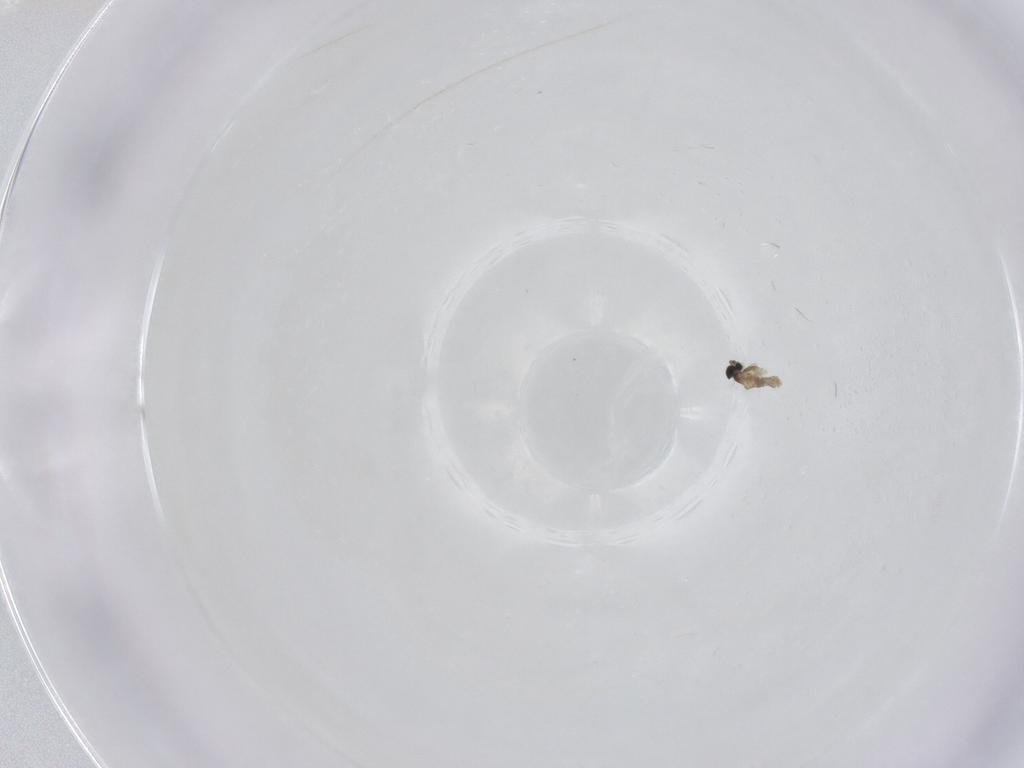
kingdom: Animalia
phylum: Arthropoda
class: Insecta
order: Diptera
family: Cecidomyiidae
